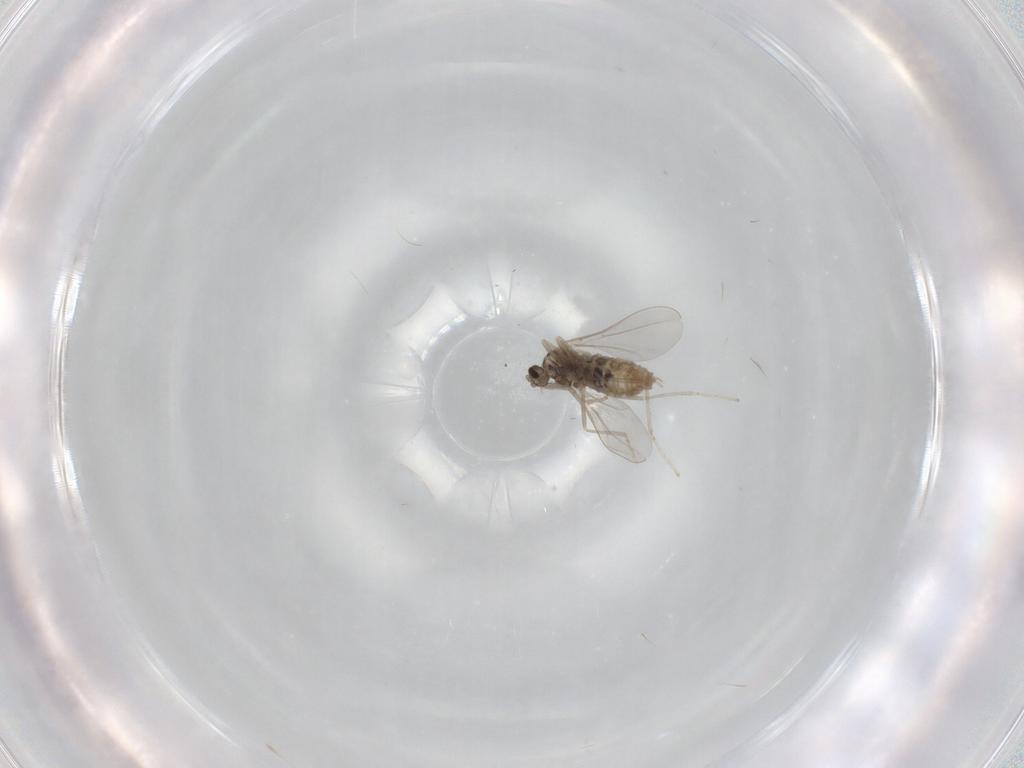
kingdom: Animalia
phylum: Arthropoda
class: Insecta
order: Diptera
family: Cecidomyiidae
